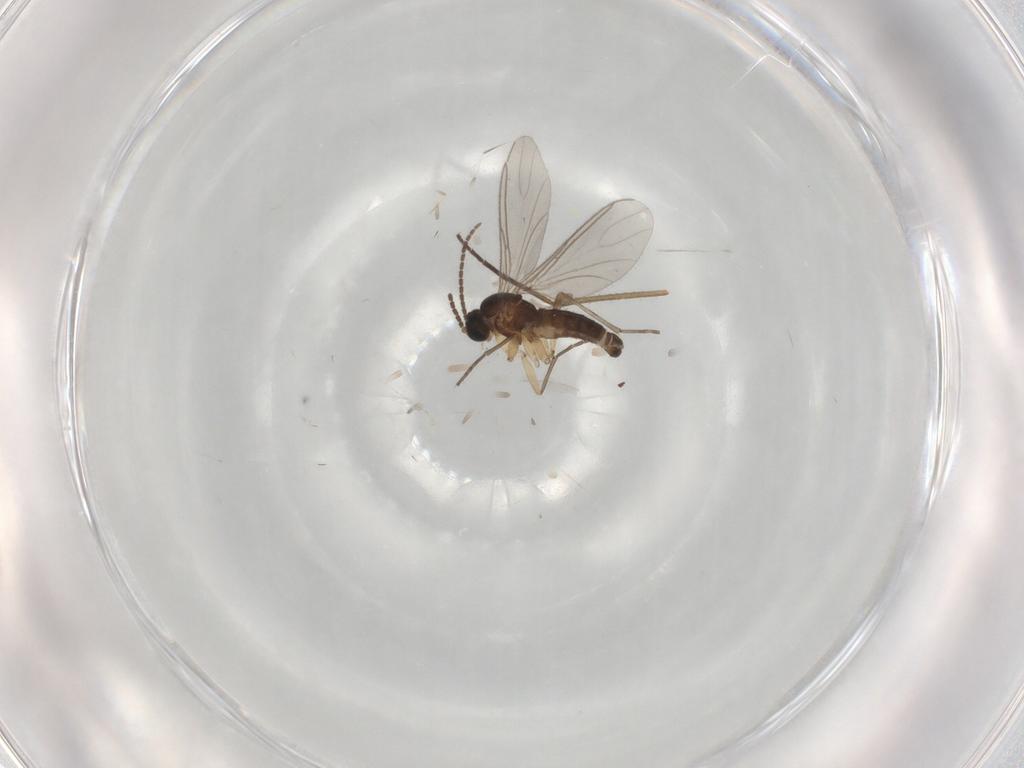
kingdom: Animalia
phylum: Arthropoda
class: Insecta
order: Diptera
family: Sciaridae
